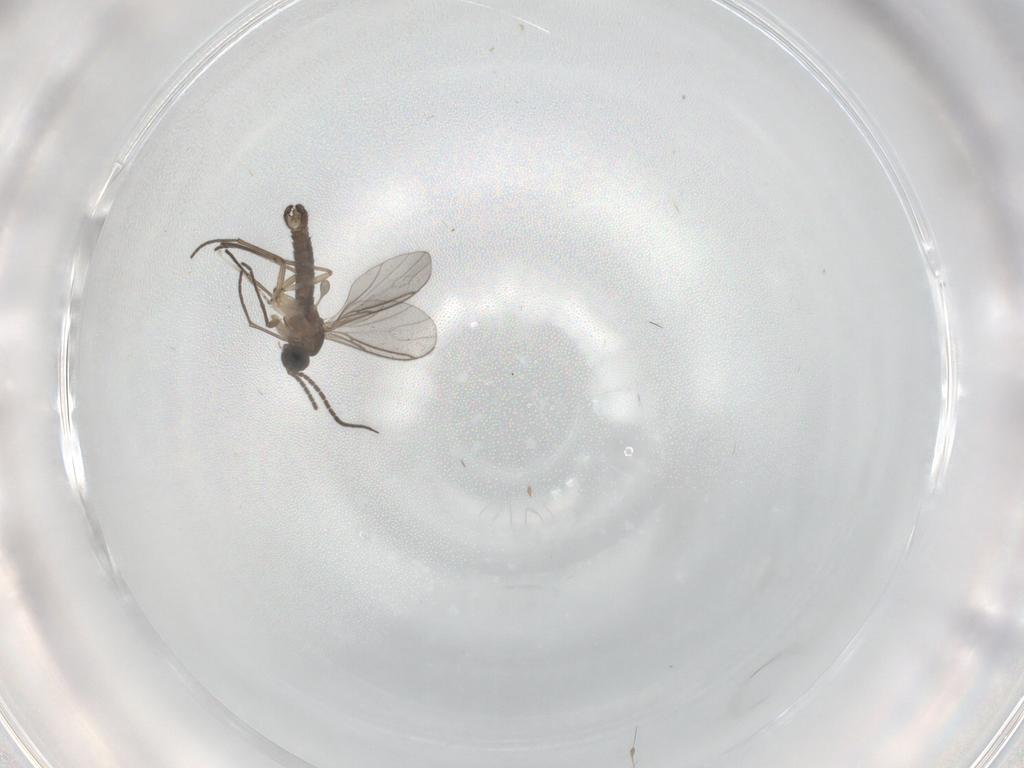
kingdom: Animalia
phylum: Arthropoda
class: Insecta
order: Diptera
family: Sciaridae
